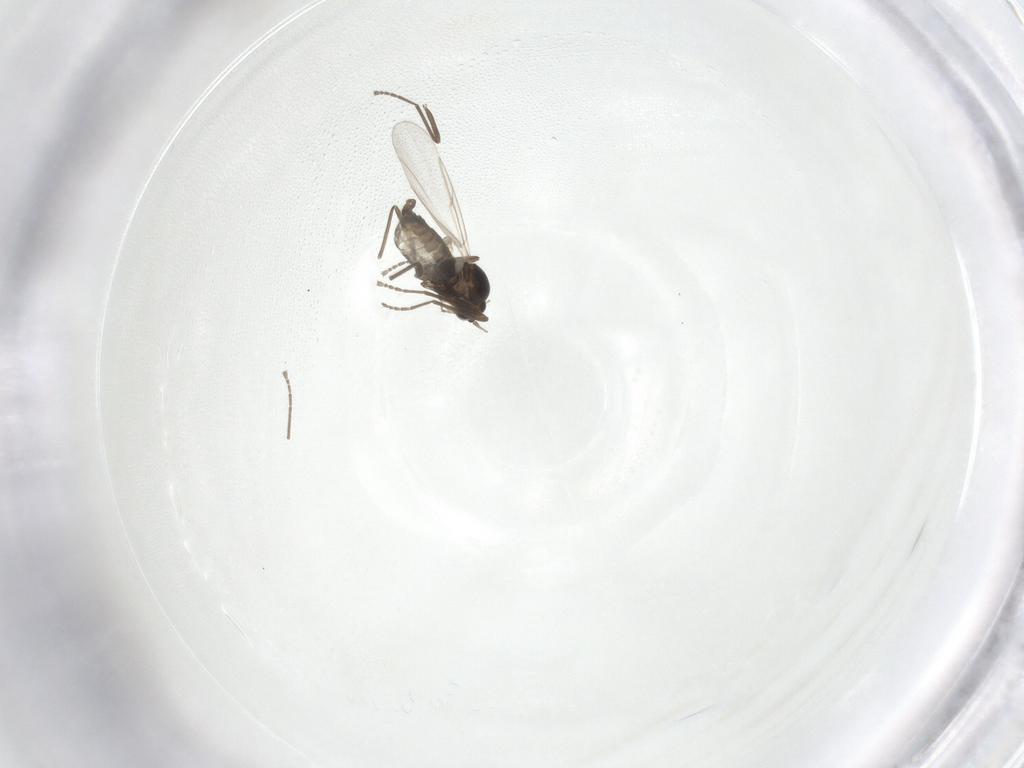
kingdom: Animalia
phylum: Arthropoda
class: Insecta
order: Diptera
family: Cecidomyiidae
